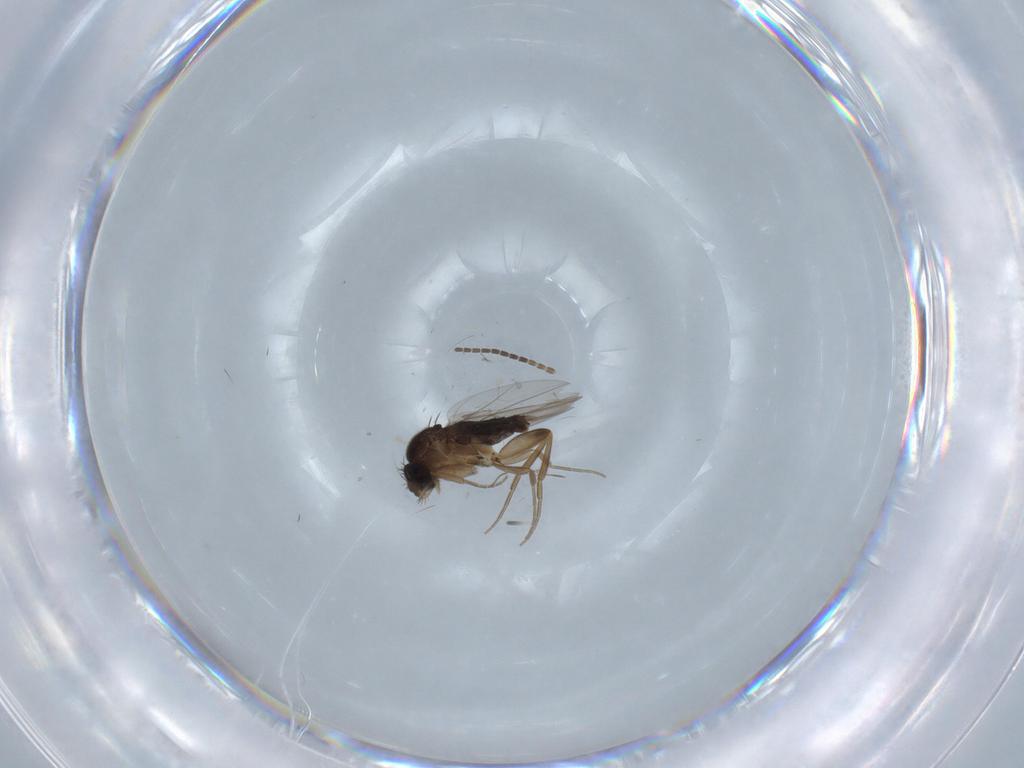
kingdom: Animalia
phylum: Arthropoda
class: Insecta
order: Diptera
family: Phoridae
